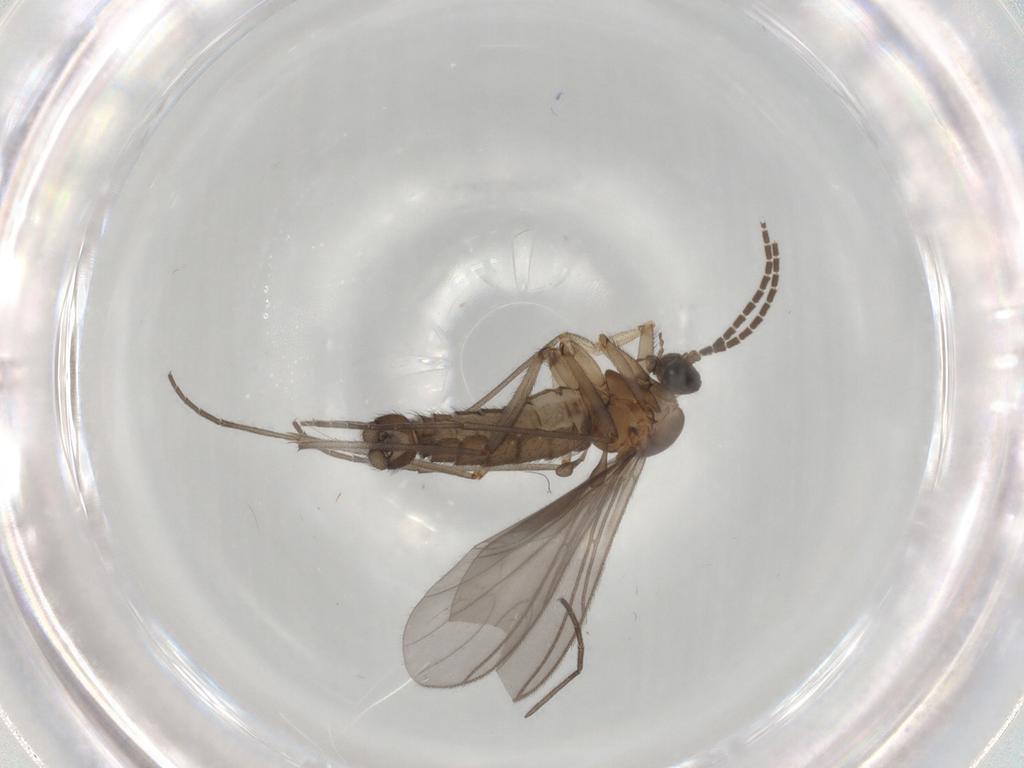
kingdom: Animalia
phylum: Arthropoda
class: Insecta
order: Diptera
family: Sciaridae
